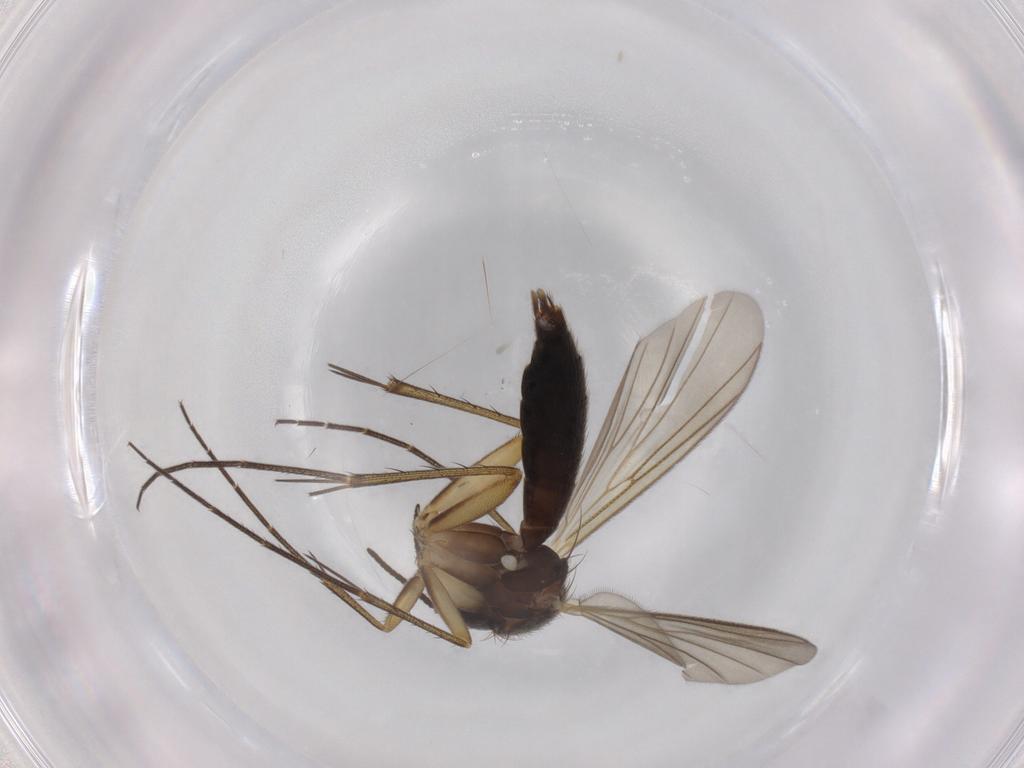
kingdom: Animalia
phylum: Arthropoda
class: Insecta
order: Diptera
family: Mycetophilidae
